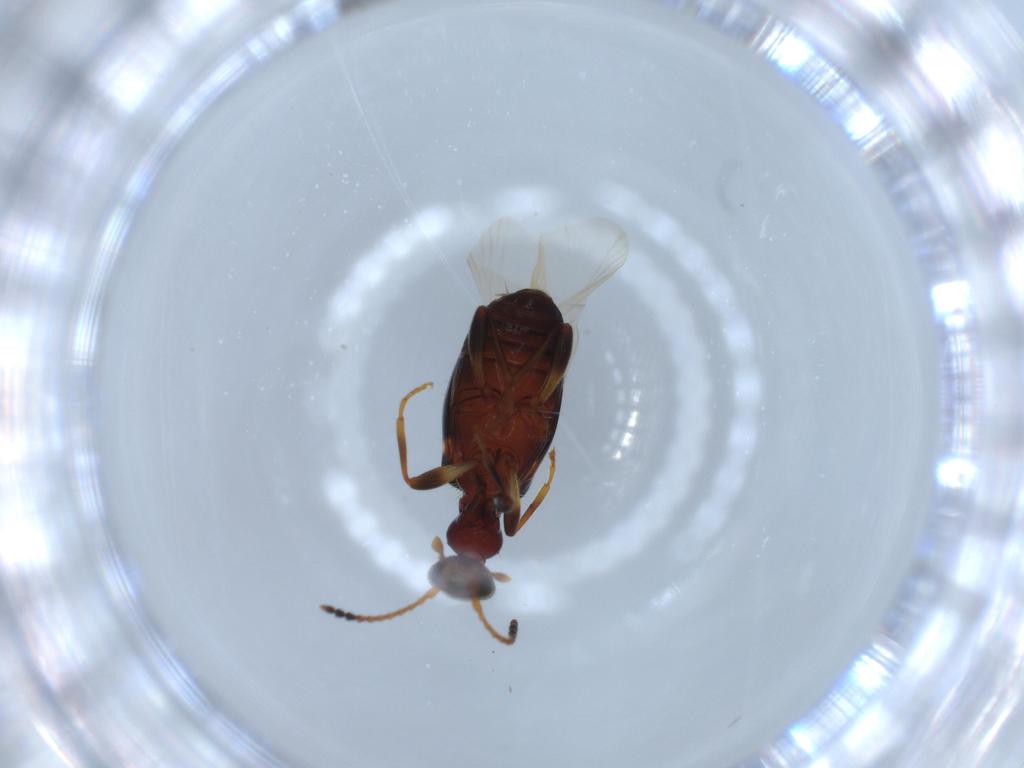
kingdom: Animalia
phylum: Arthropoda
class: Insecta
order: Coleoptera
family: Anthicidae
